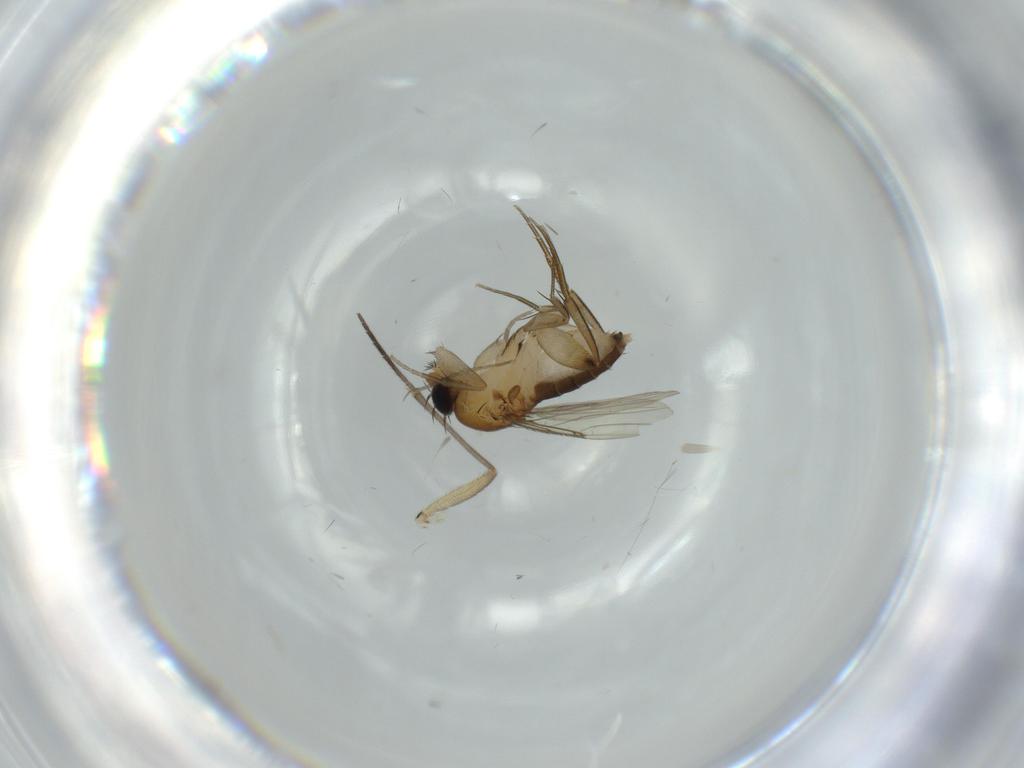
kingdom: Animalia
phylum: Arthropoda
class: Insecta
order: Diptera
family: Phoridae
